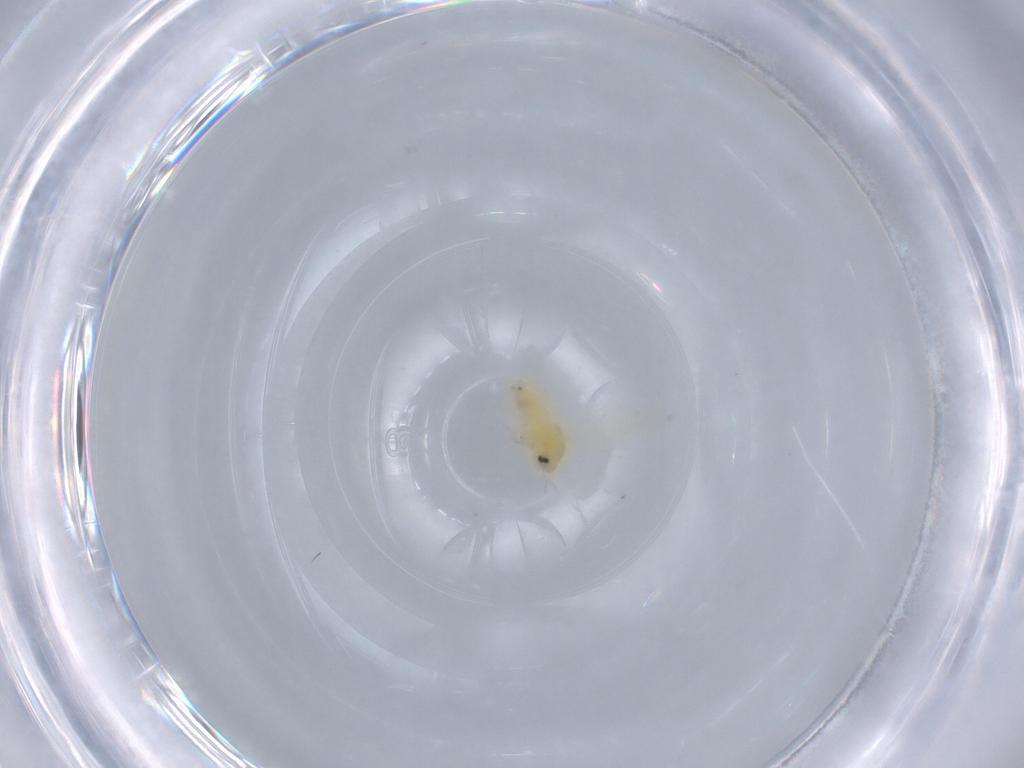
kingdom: Animalia
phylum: Arthropoda
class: Insecta
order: Hemiptera
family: Aleyrodidae
